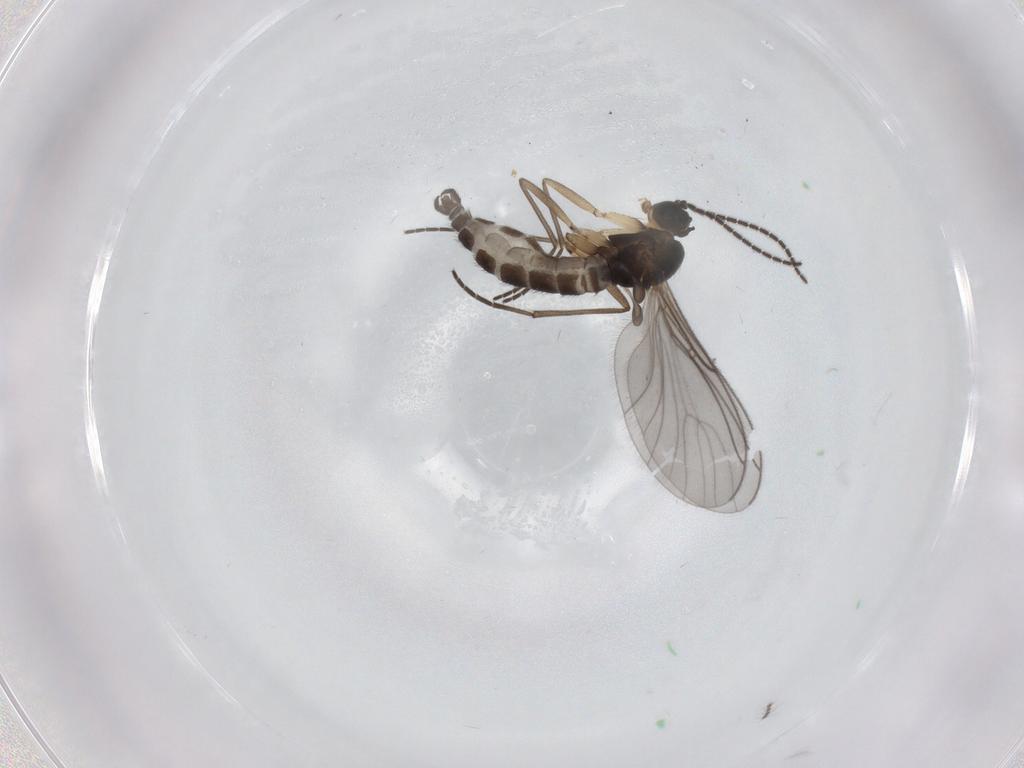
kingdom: Animalia
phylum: Arthropoda
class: Insecta
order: Diptera
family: Sciaridae
